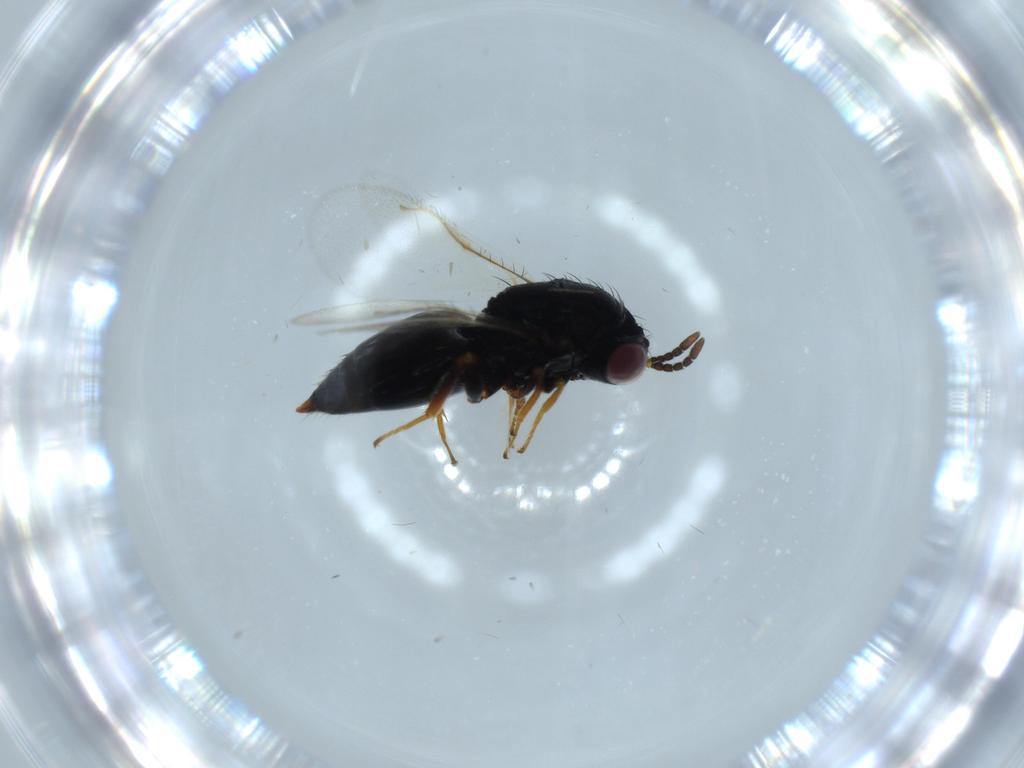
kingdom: Animalia
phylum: Arthropoda
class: Insecta
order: Hymenoptera
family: Pteromalidae
